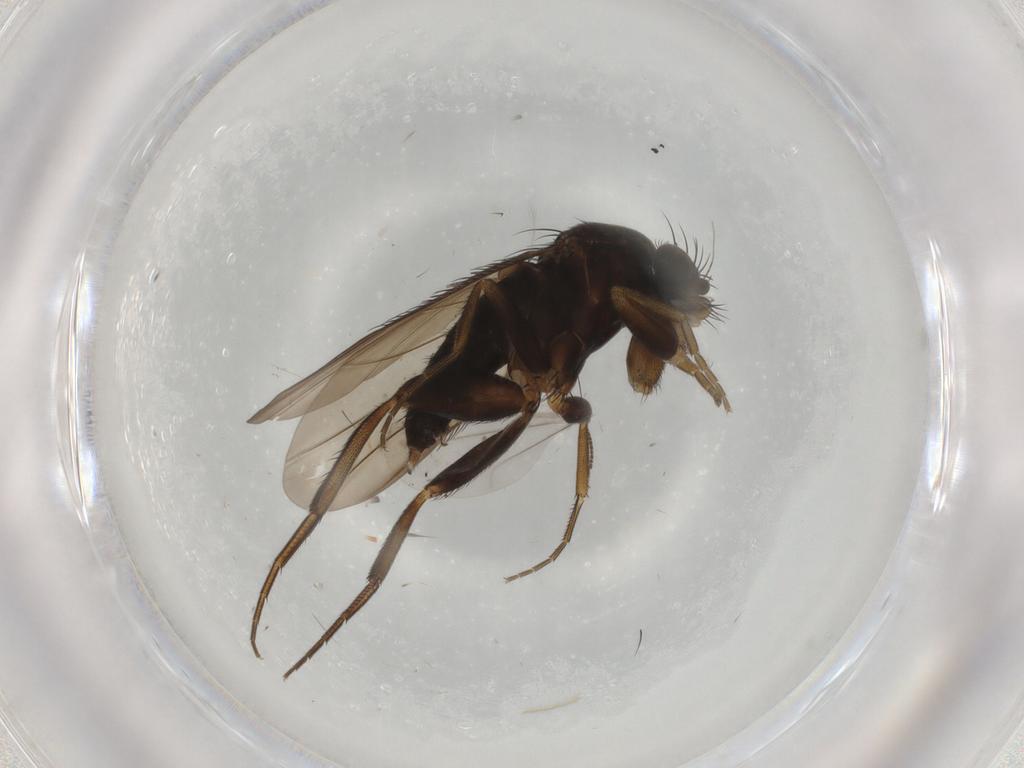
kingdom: Animalia
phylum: Arthropoda
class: Insecta
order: Diptera
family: Phoridae
